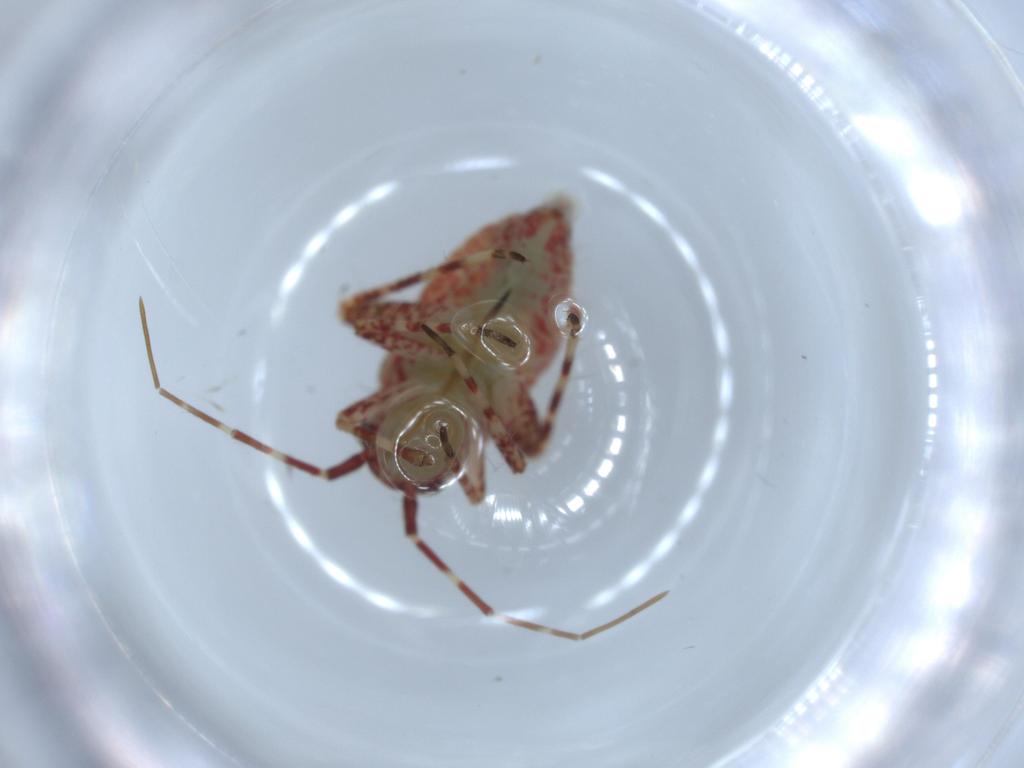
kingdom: Animalia
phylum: Arthropoda
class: Insecta
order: Hemiptera
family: Miridae
